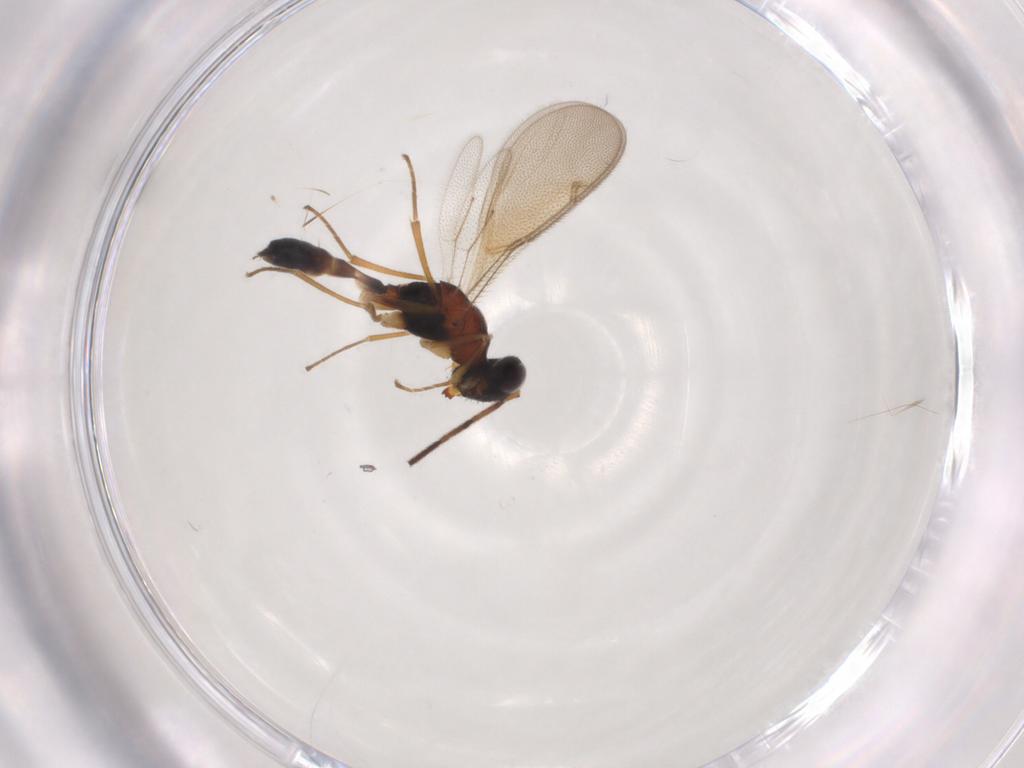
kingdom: Animalia
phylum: Arthropoda
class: Insecta
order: Hymenoptera
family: Pteromalidae
